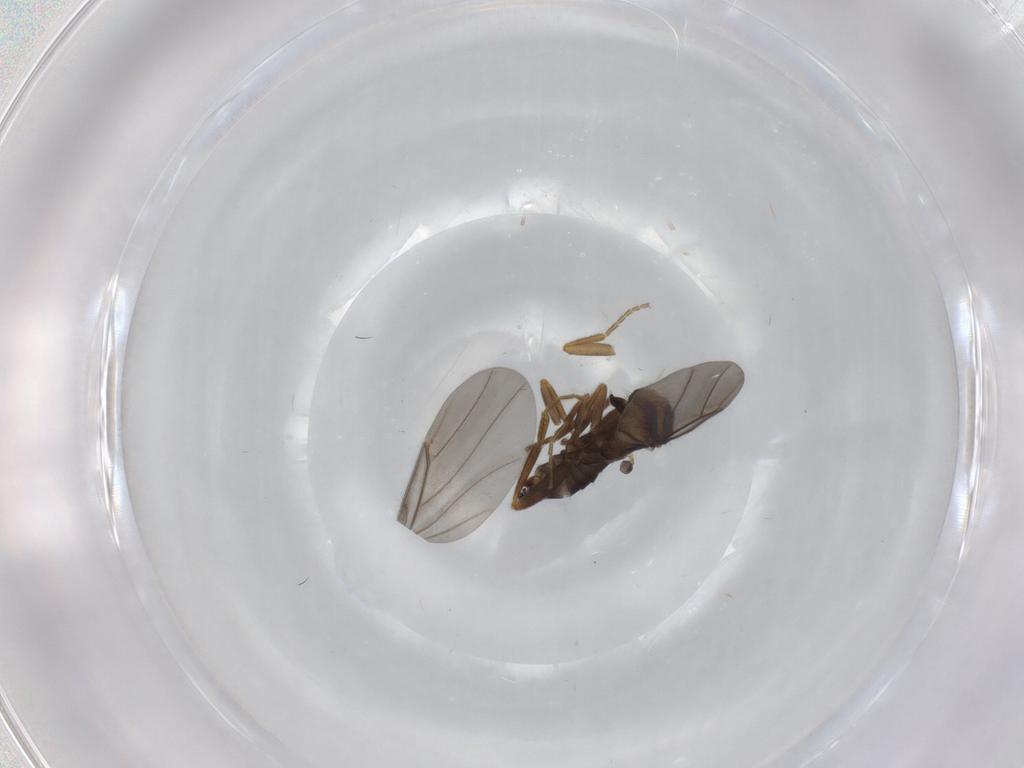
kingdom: Animalia
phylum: Arthropoda
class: Insecta
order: Diptera
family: Phoridae
